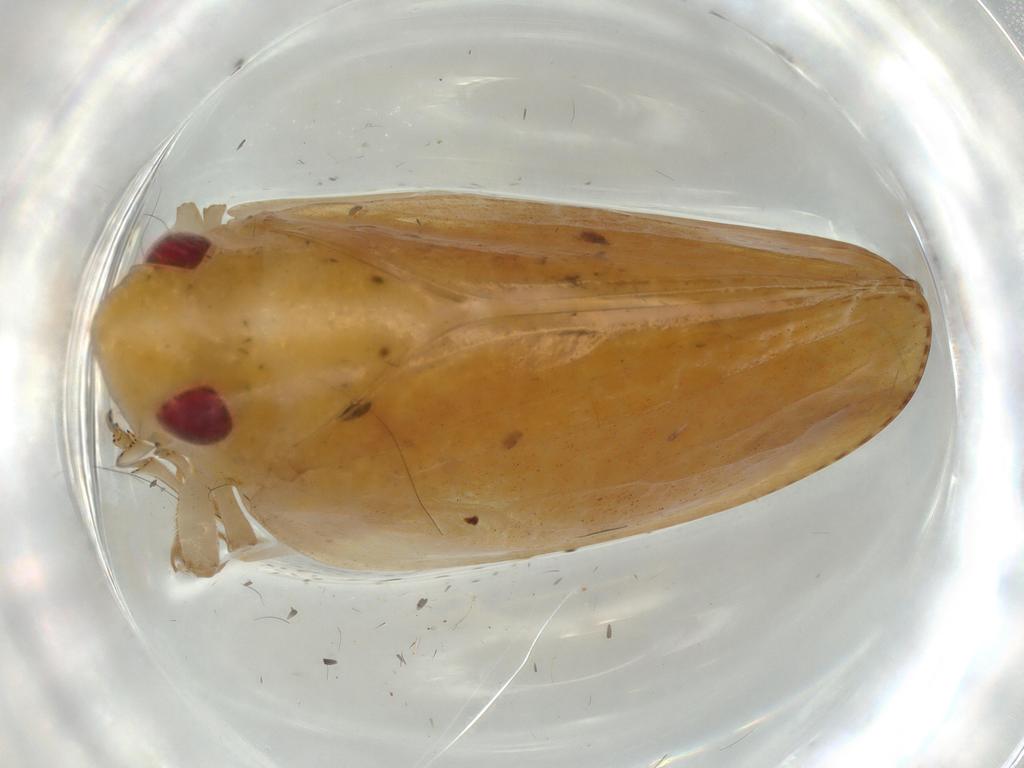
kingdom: Animalia
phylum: Arthropoda
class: Insecta
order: Hemiptera
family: Acanaloniidae
